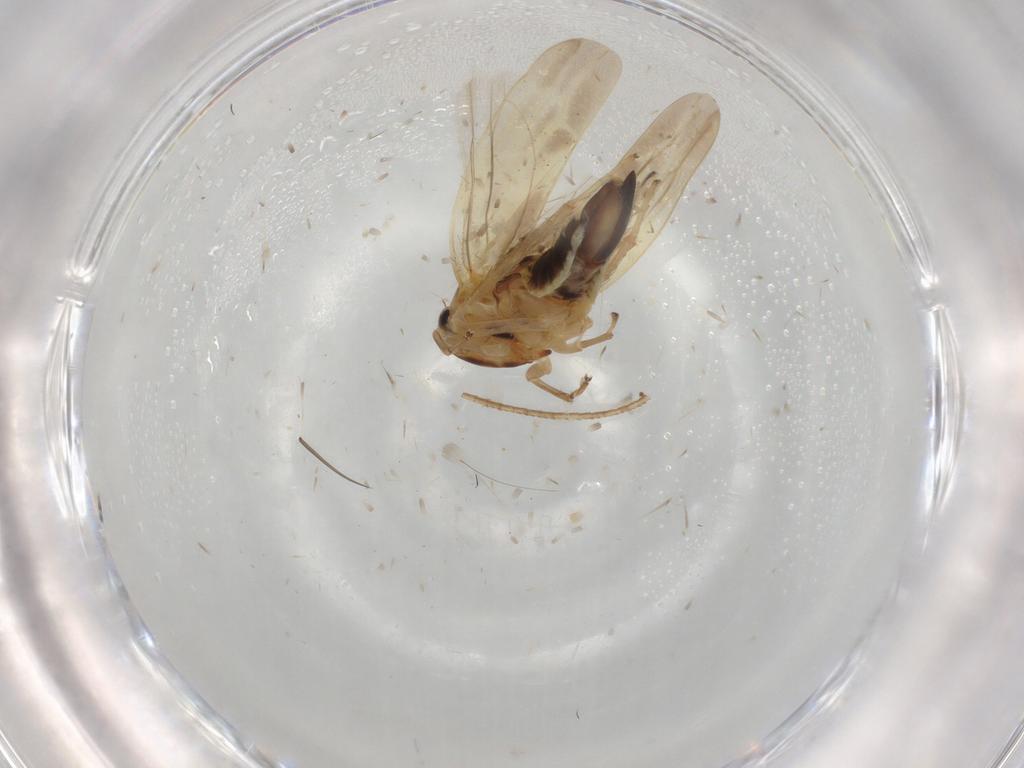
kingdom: Animalia
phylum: Arthropoda
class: Insecta
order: Hemiptera
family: Cicadellidae
